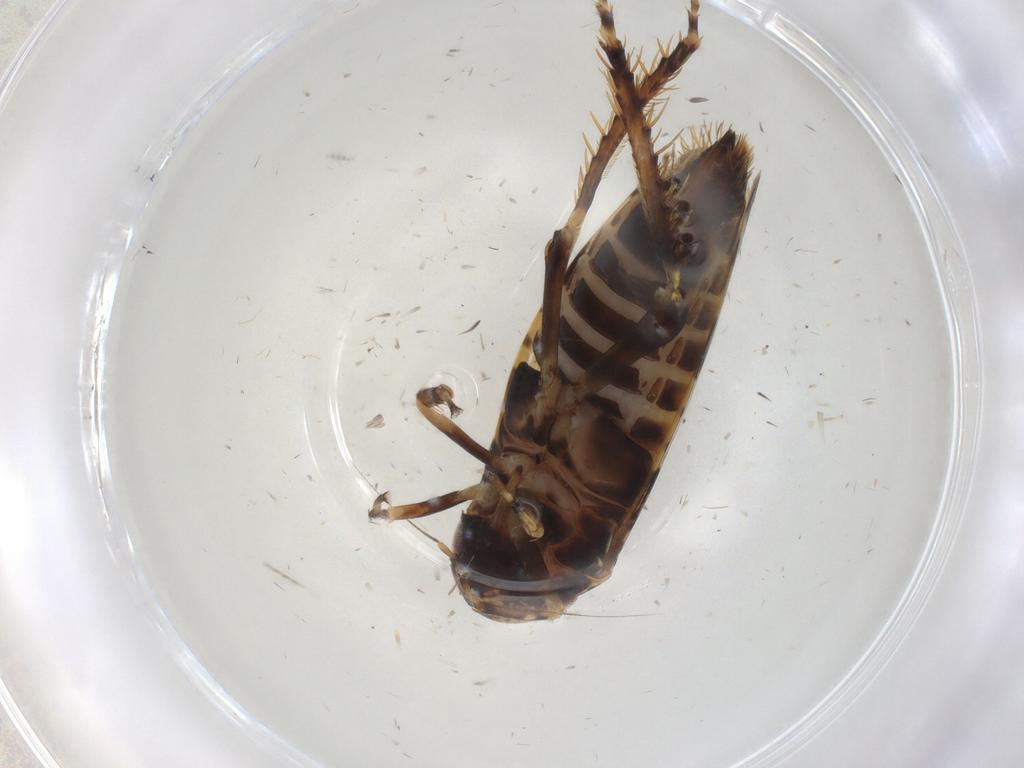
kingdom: Animalia
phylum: Arthropoda
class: Insecta
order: Hemiptera
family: Cicadellidae
